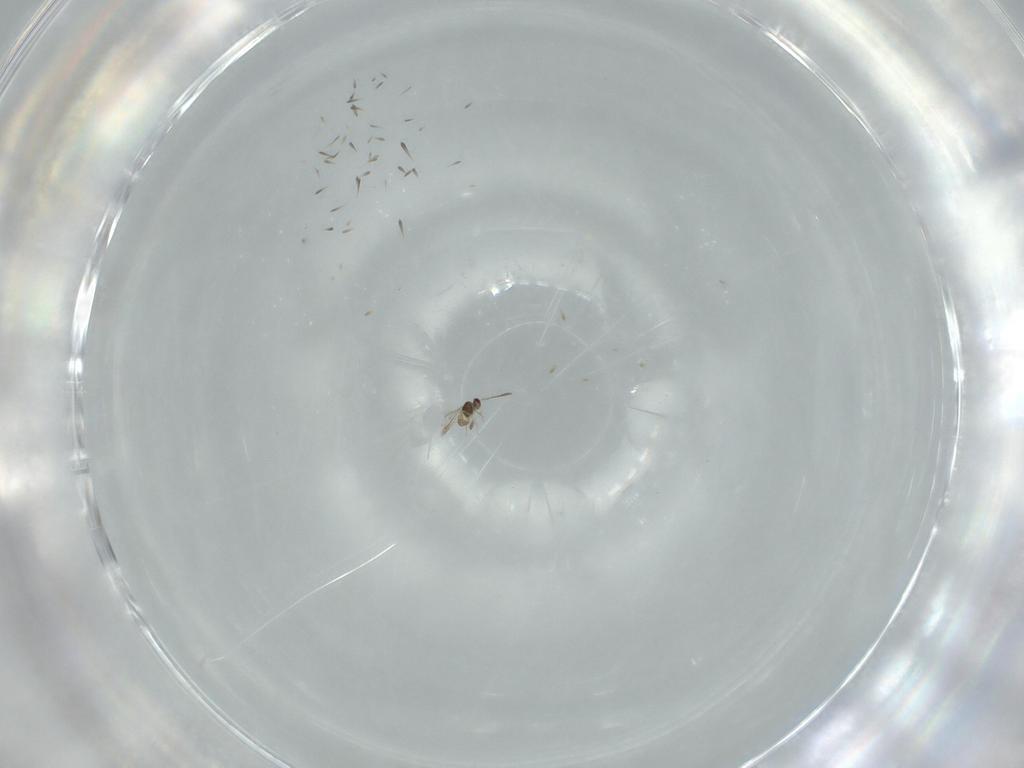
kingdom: Animalia
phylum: Arthropoda
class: Insecta
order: Hymenoptera
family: Mymaridae
